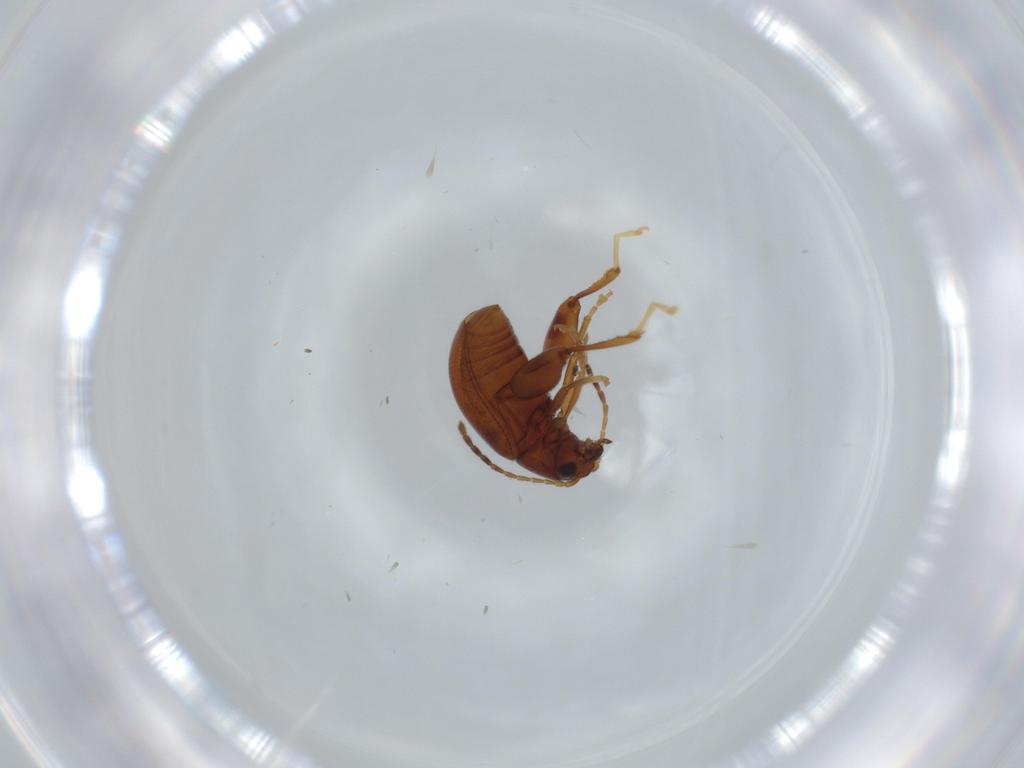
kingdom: Animalia
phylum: Arthropoda
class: Insecta
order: Coleoptera
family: Chrysomelidae
